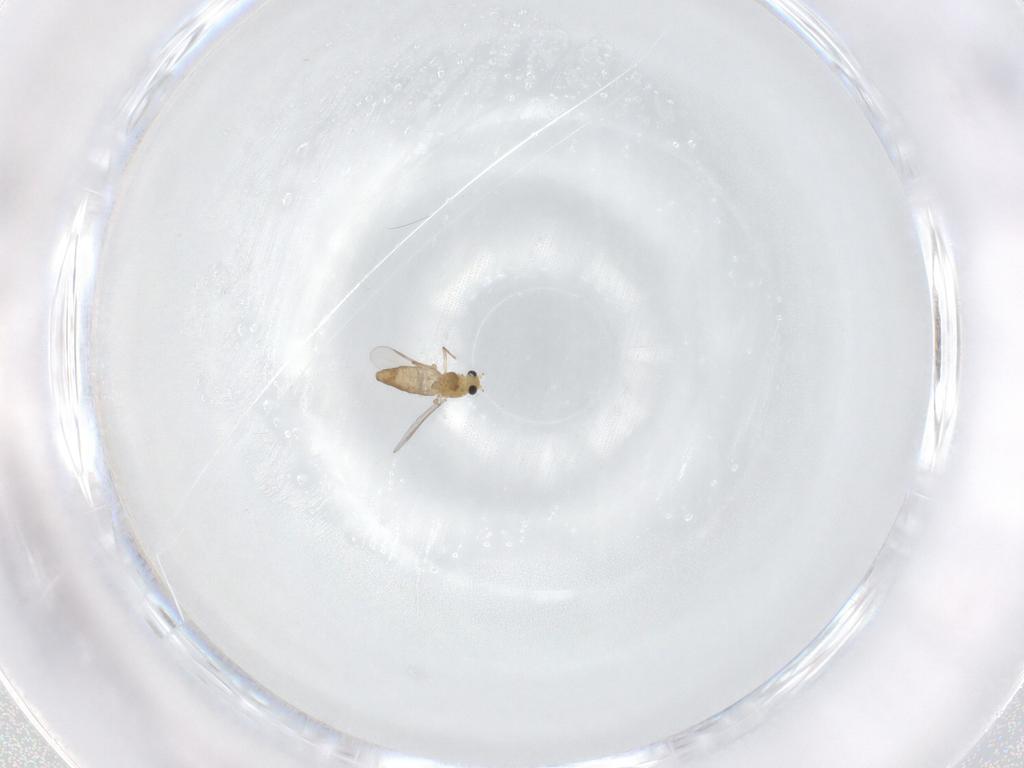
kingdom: Animalia
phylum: Arthropoda
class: Insecta
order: Diptera
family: Chironomidae
